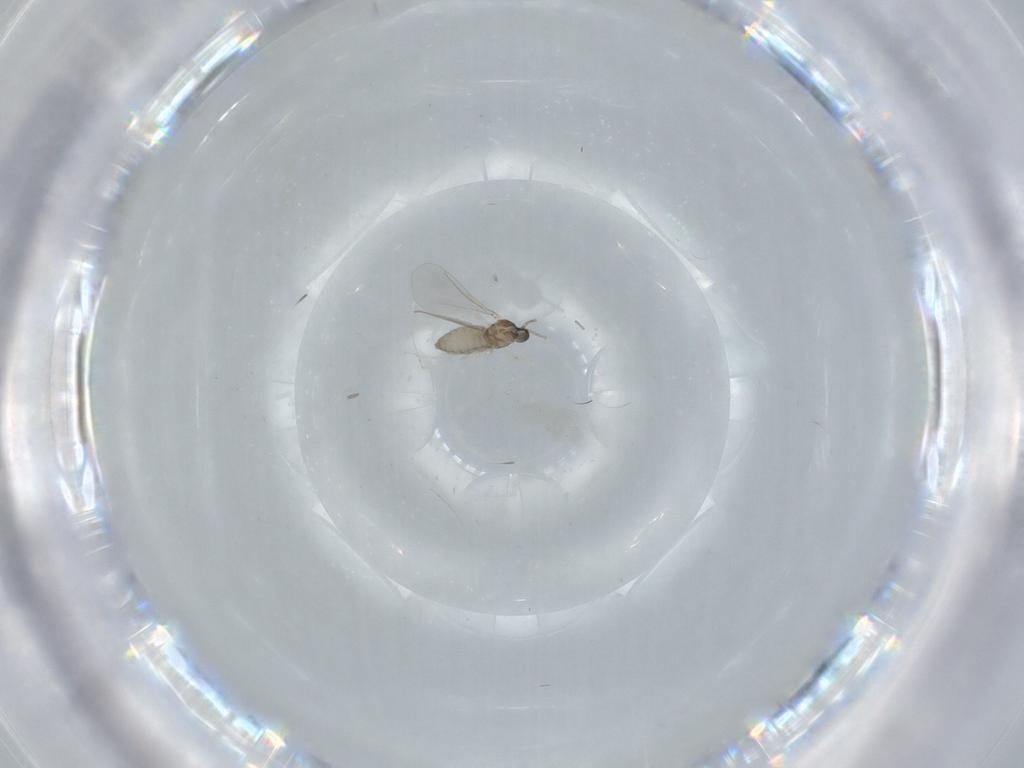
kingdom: Animalia
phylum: Arthropoda
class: Insecta
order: Diptera
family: Cecidomyiidae
